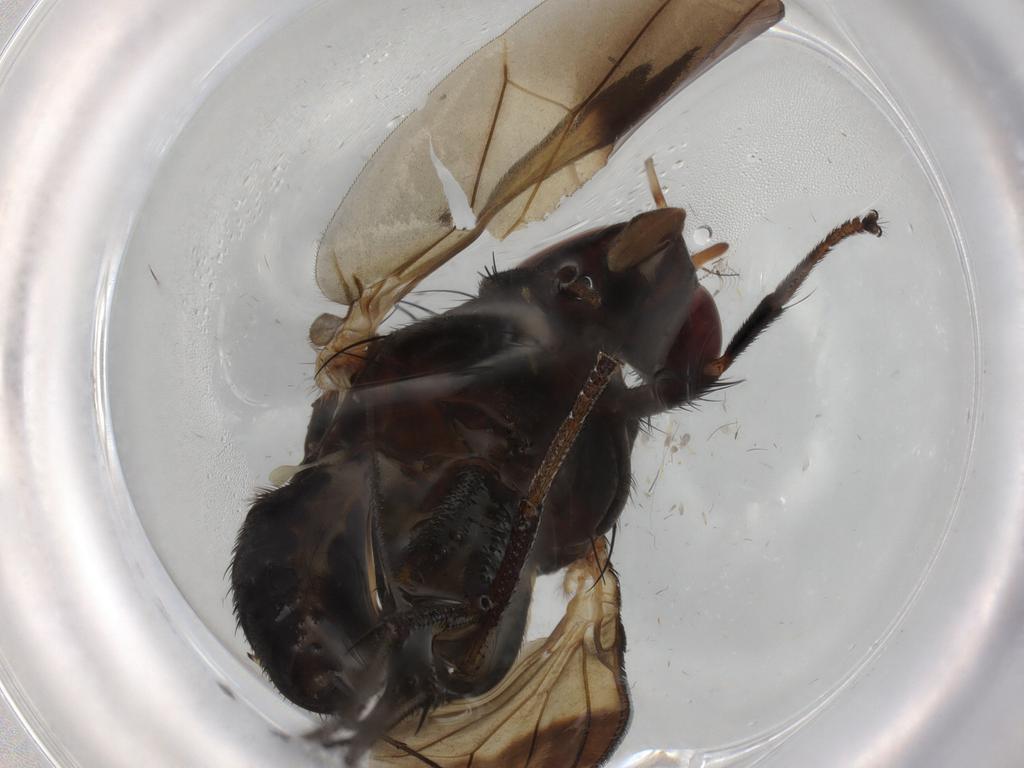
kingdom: Animalia
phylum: Arthropoda
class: Insecta
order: Diptera
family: Lauxaniidae
